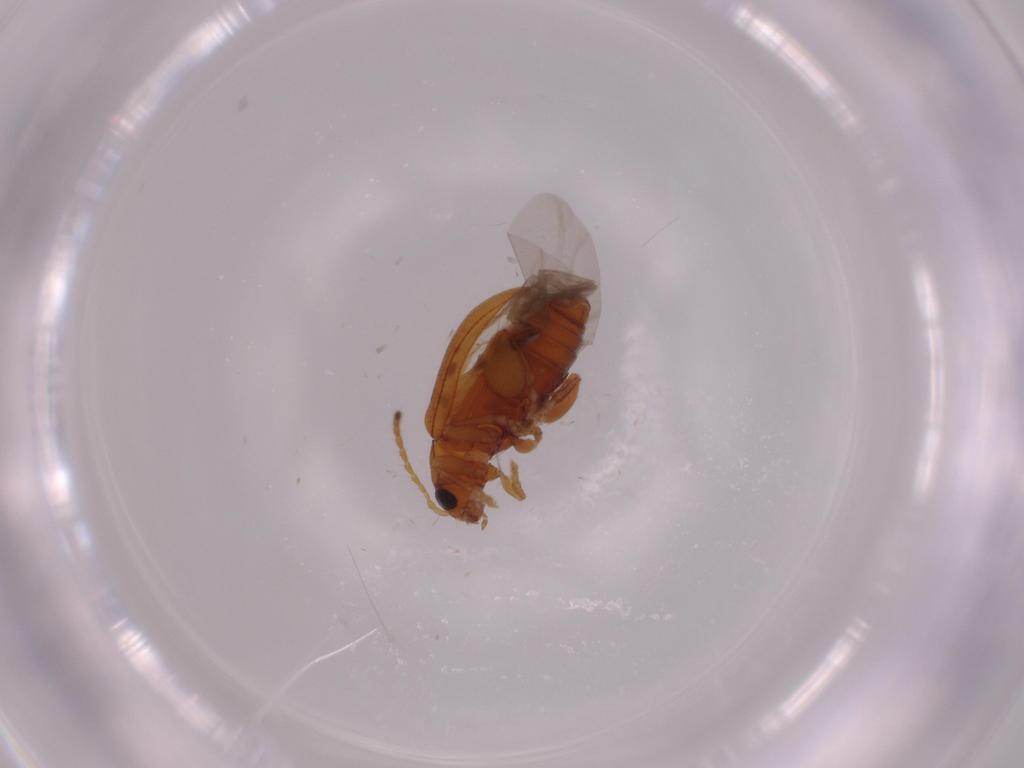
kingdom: Animalia
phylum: Arthropoda
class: Insecta
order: Coleoptera
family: Chrysomelidae
